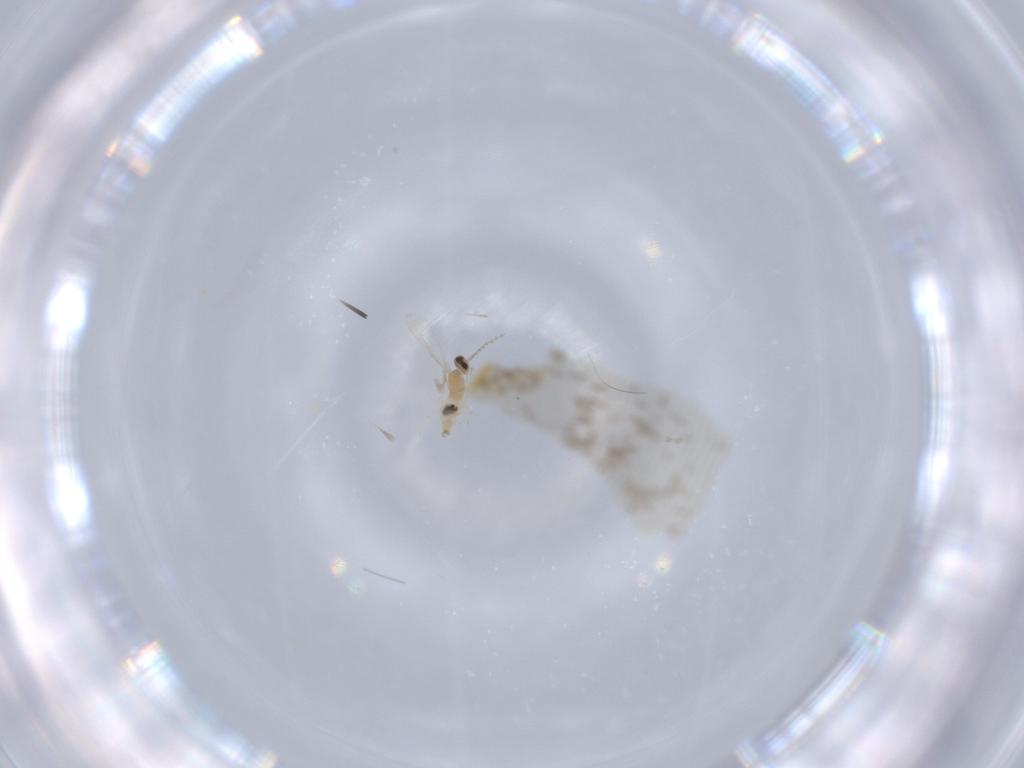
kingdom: Animalia
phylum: Arthropoda
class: Insecta
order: Diptera
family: Cecidomyiidae
